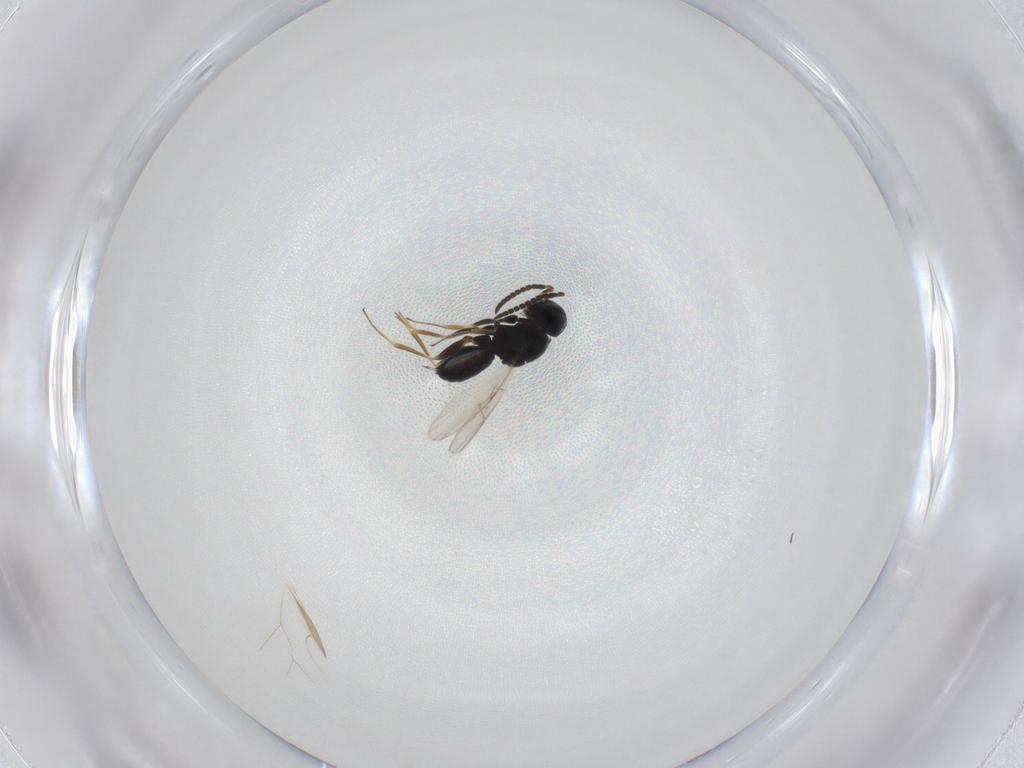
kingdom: Animalia
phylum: Arthropoda
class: Insecta
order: Hymenoptera
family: Scelionidae
